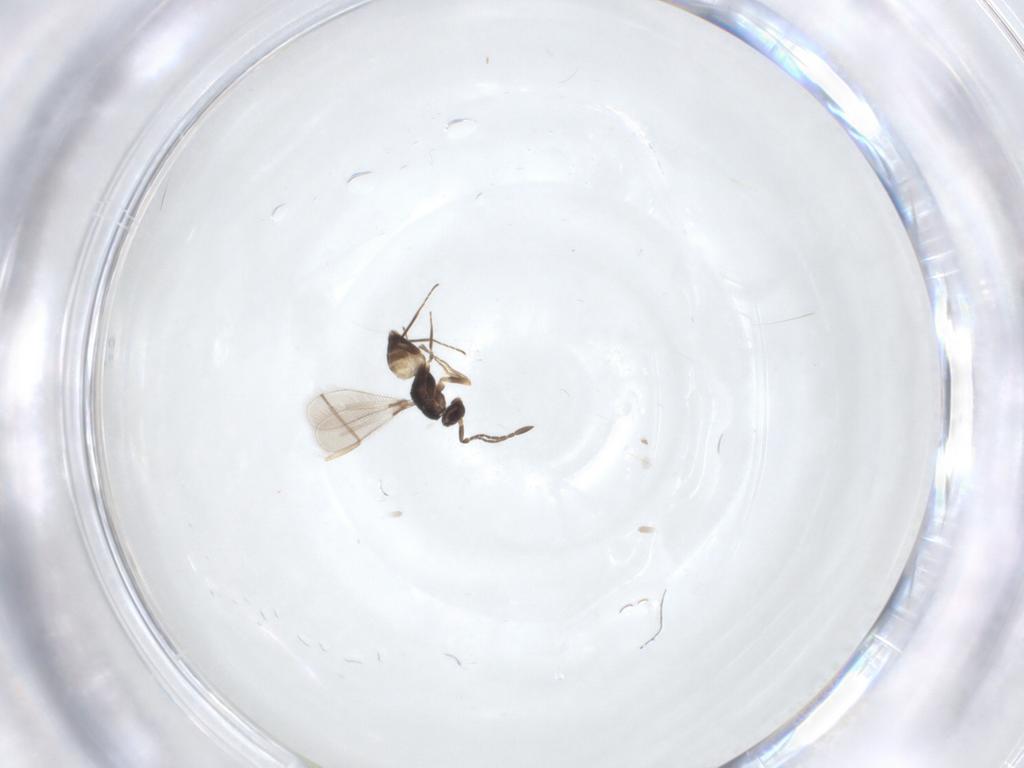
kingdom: Animalia
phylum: Arthropoda
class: Insecta
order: Hymenoptera
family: Mymaridae
